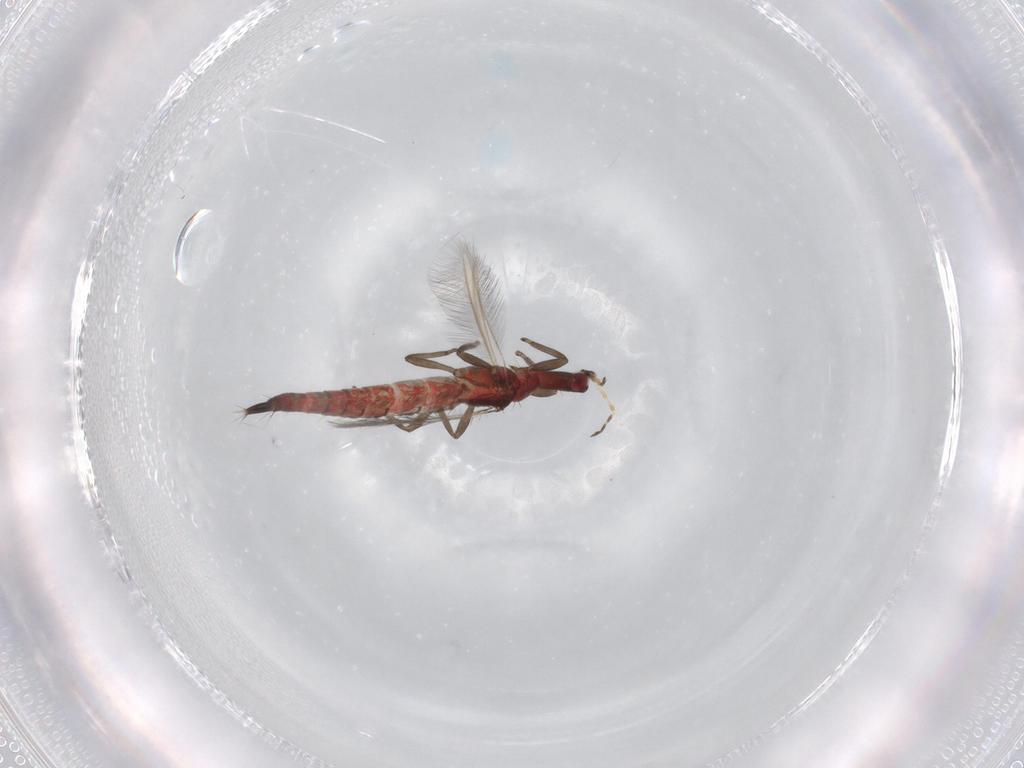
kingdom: Animalia
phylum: Arthropoda
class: Insecta
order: Thysanoptera
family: Phlaeothripidae
